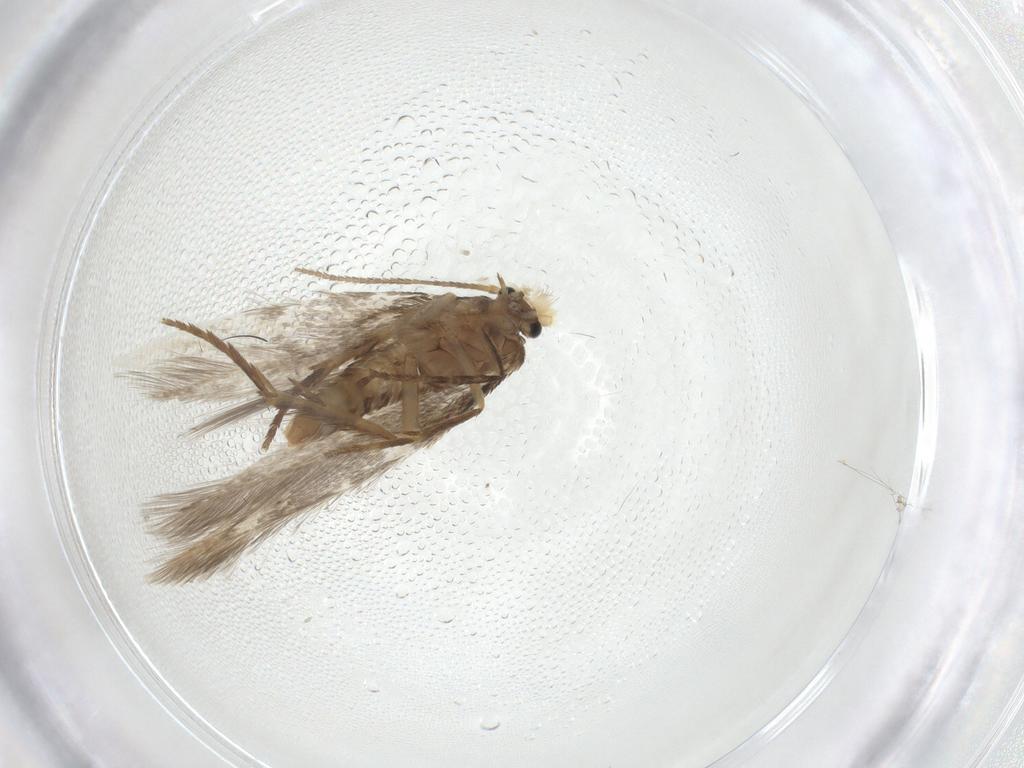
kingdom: Animalia
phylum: Arthropoda
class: Insecta
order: Lepidoptera
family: Nepticulidae
